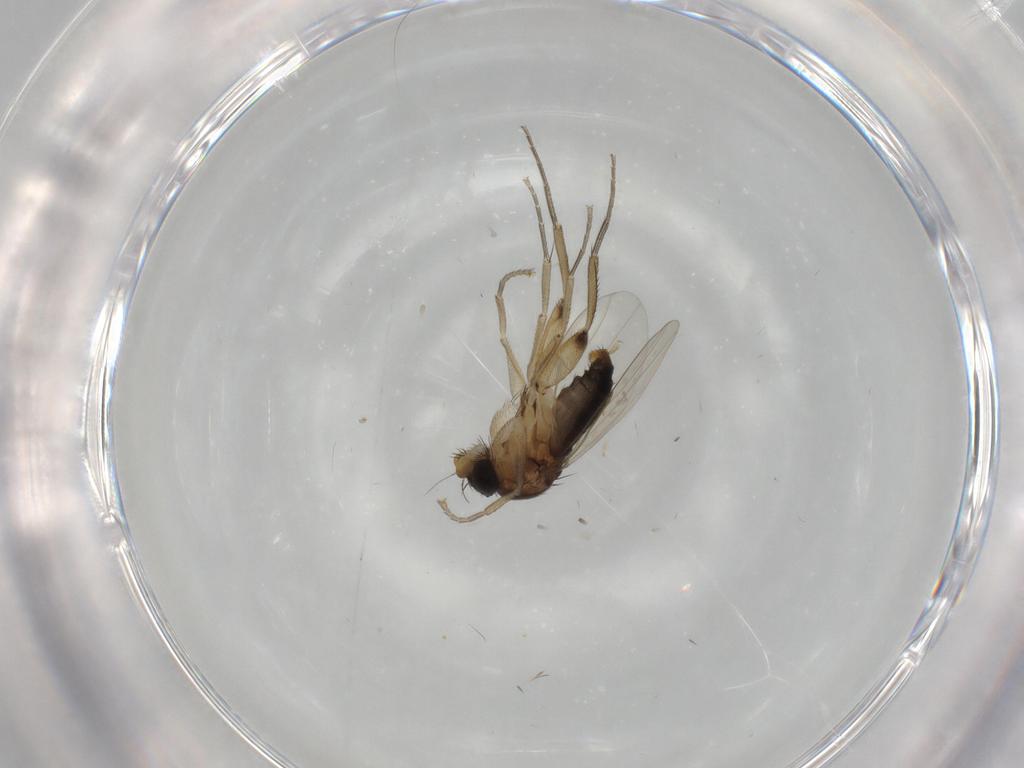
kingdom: Animalia
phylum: Arthropoda
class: Insecta
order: Diptera
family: Phoridae
